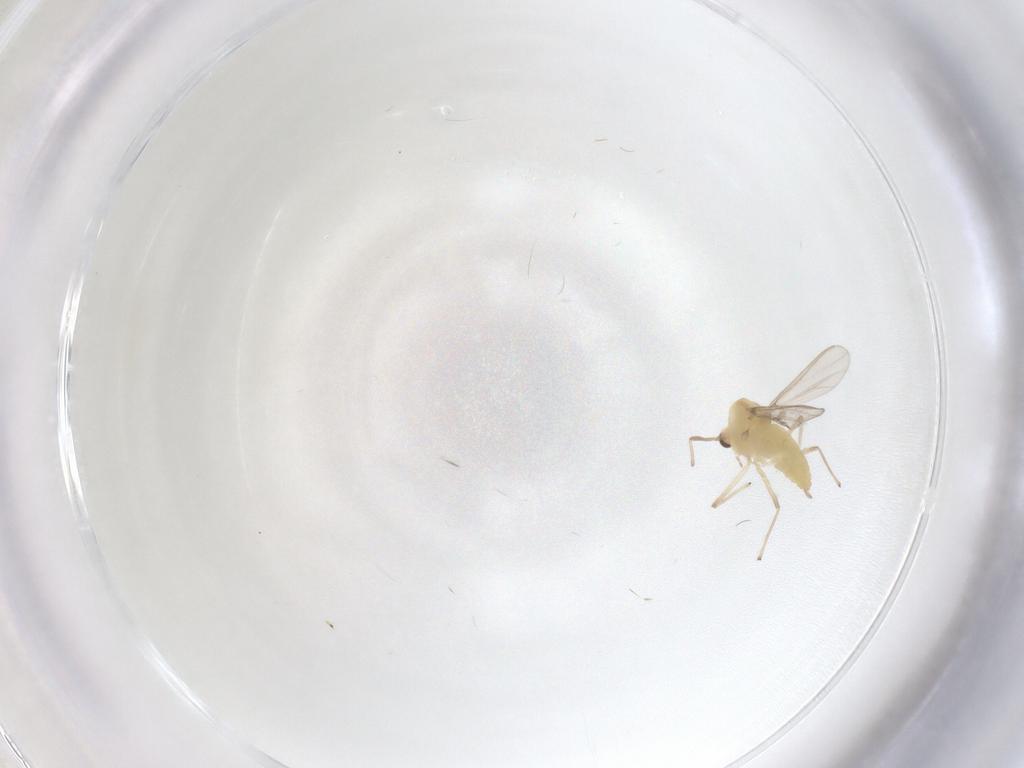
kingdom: Animalia
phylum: Arthropoda
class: Insecta
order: Diptera
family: Chironomidae
